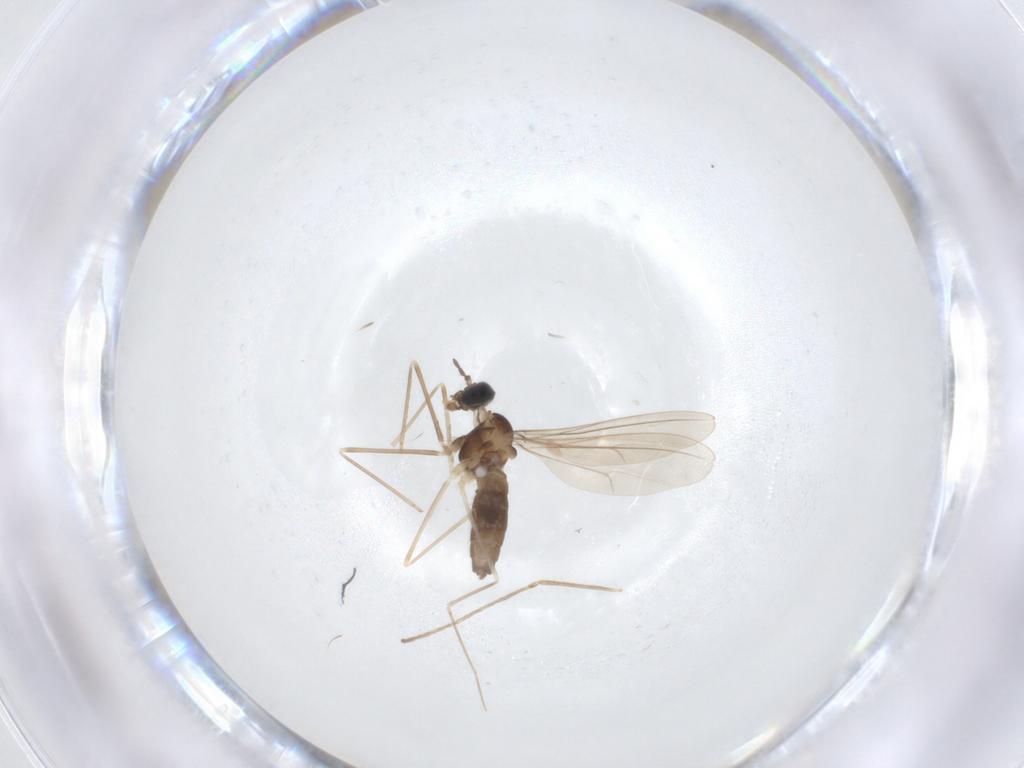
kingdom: Animalia
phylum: Arthropoda
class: Insecta
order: Diptera
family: Cecidomyiidae
